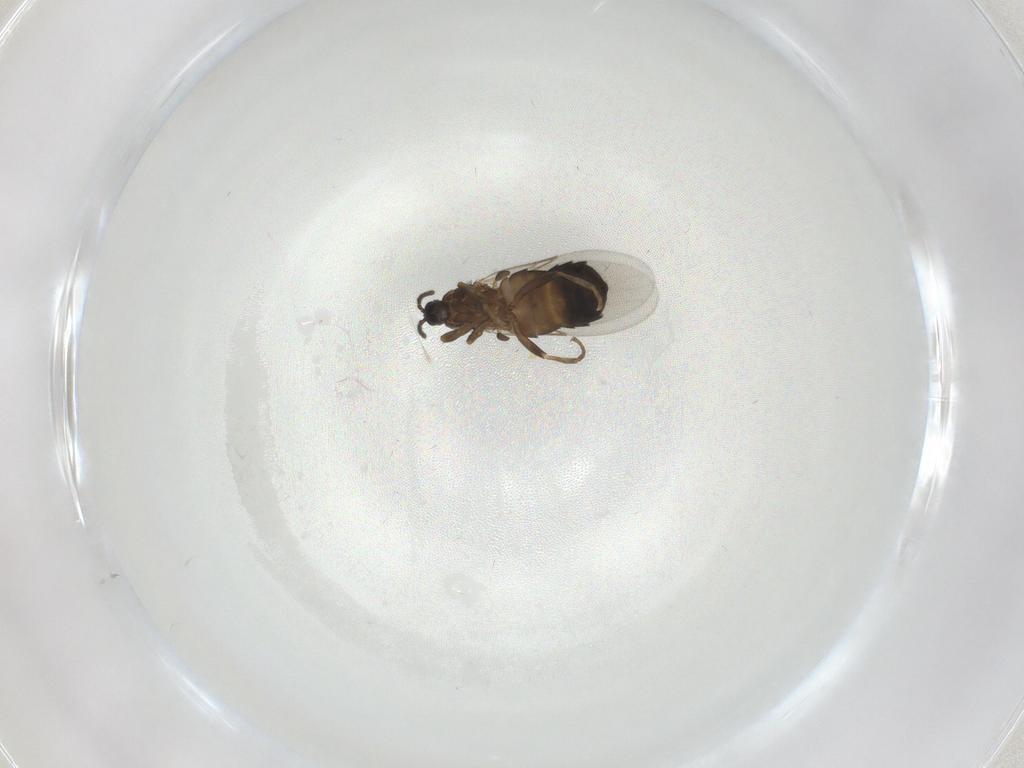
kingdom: Animalia
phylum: Arthropoda
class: Insecta
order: Diptera
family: Scatopsidae
